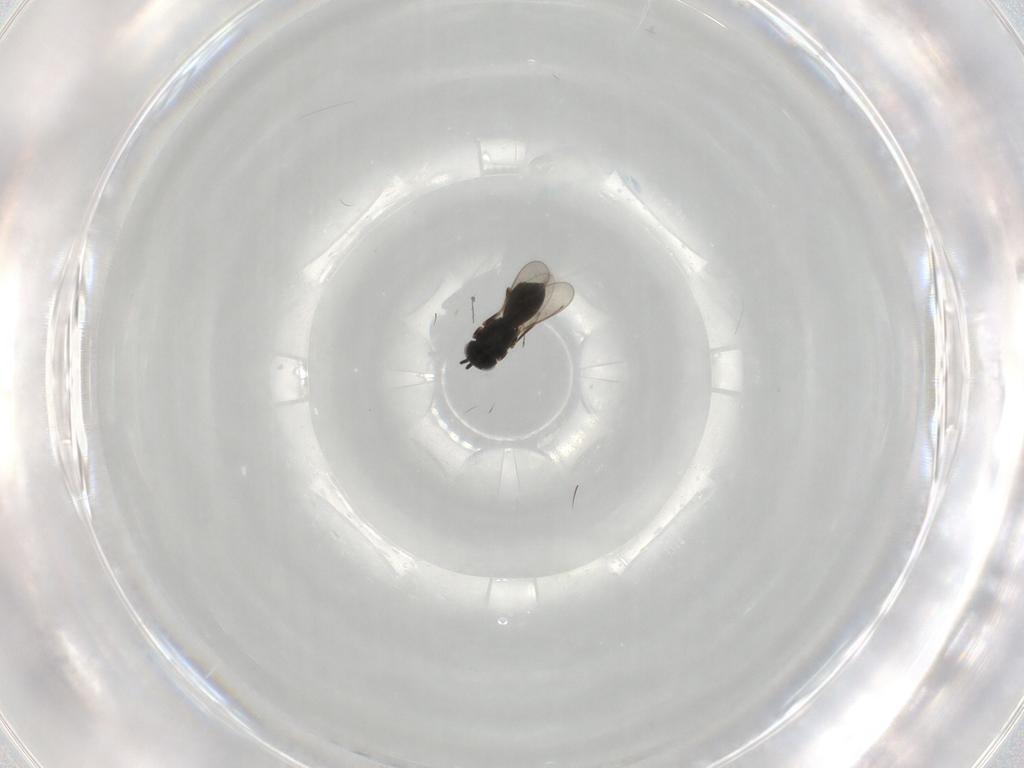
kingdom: Animalia
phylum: Arthropoda
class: Insecta
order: Hymenoptera
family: Scelionidae
